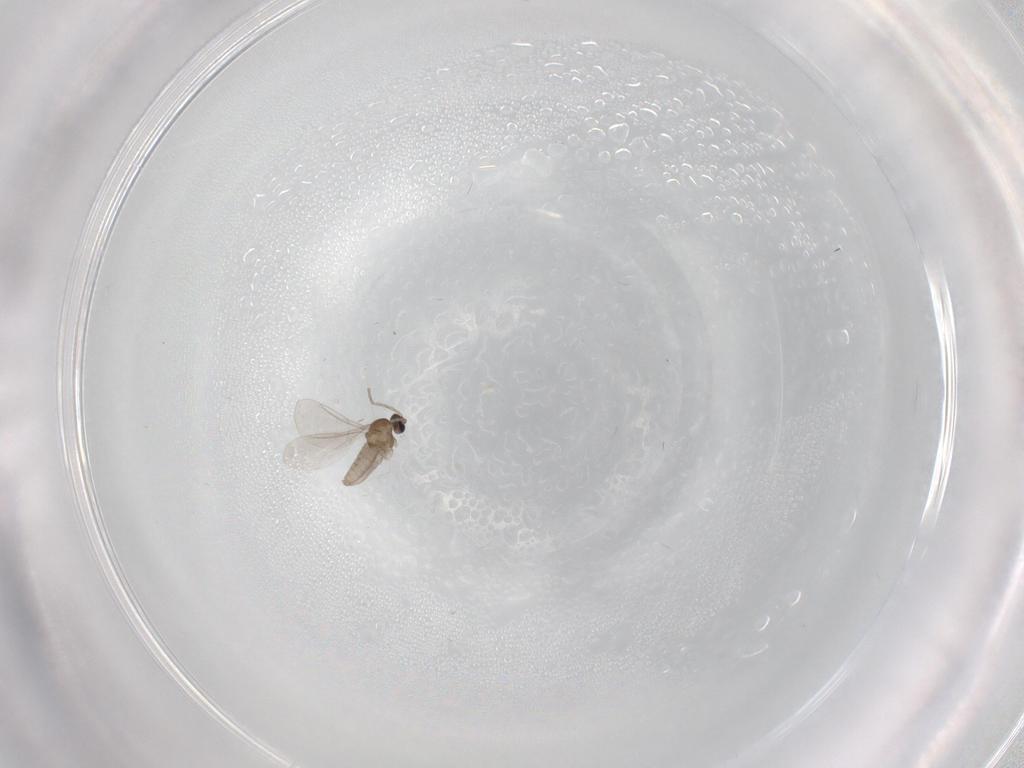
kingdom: Animalia
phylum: Arthropoda
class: Insecta
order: Diptera
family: Cecidomyiidae
